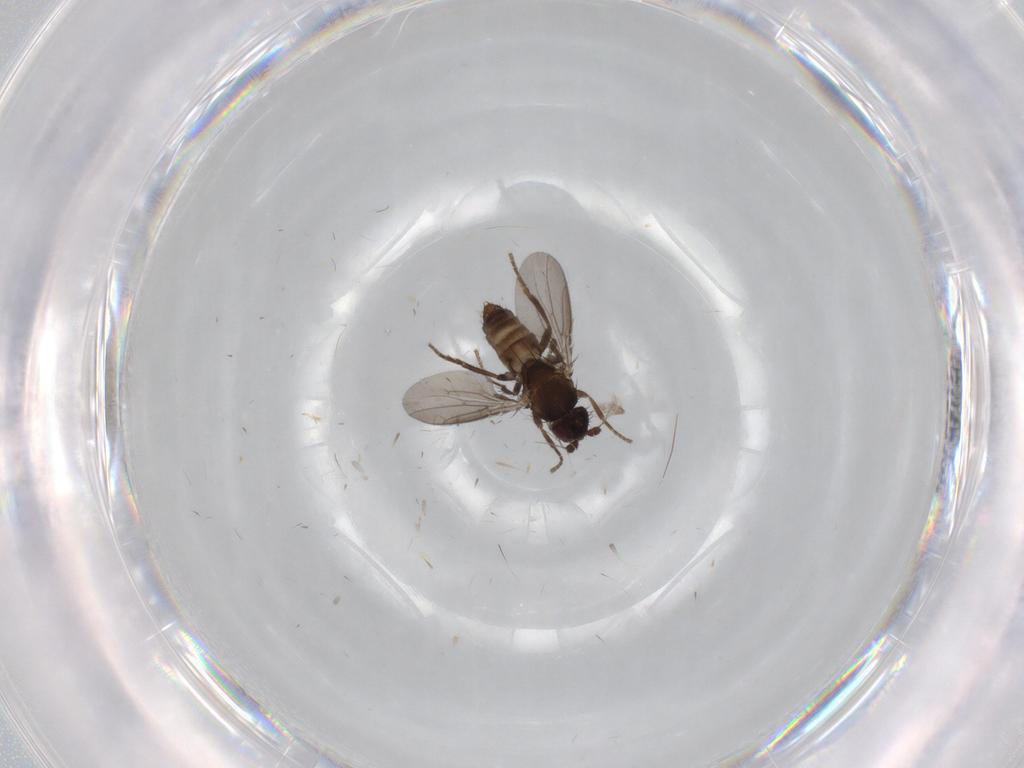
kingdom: Animalia
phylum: Arthropoda
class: Insecta
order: Diptera
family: Sphaeroceridae
